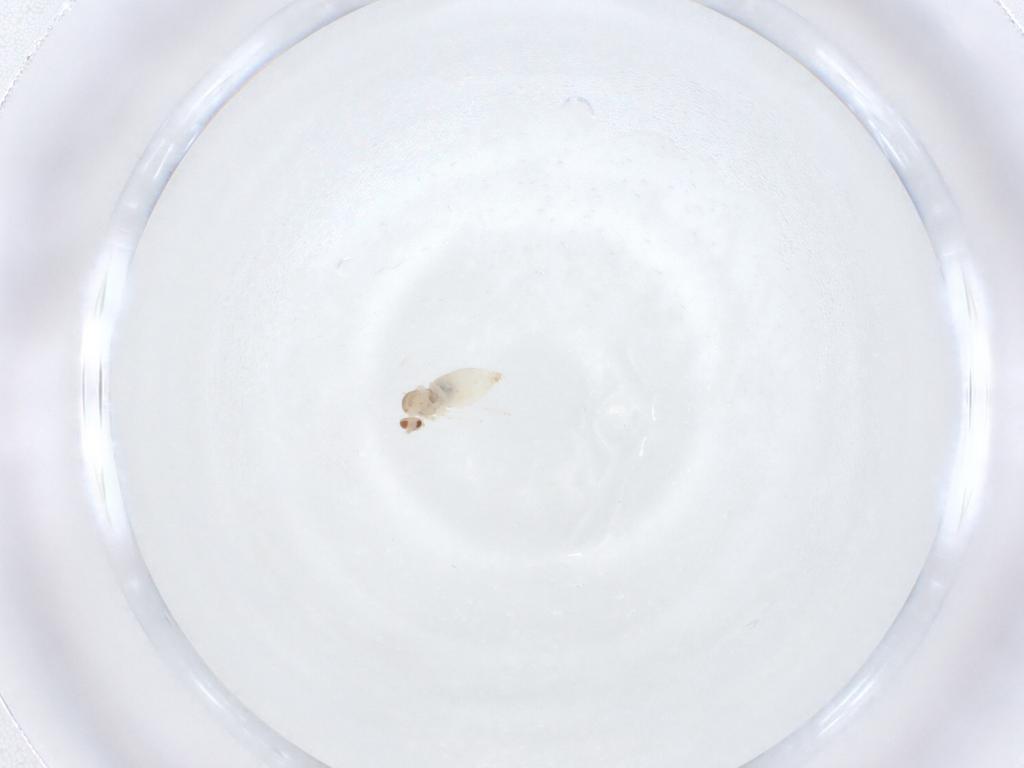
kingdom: Animalia
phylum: Arthropoda
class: Insecta
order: Diptera
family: Cecidomyiidae
